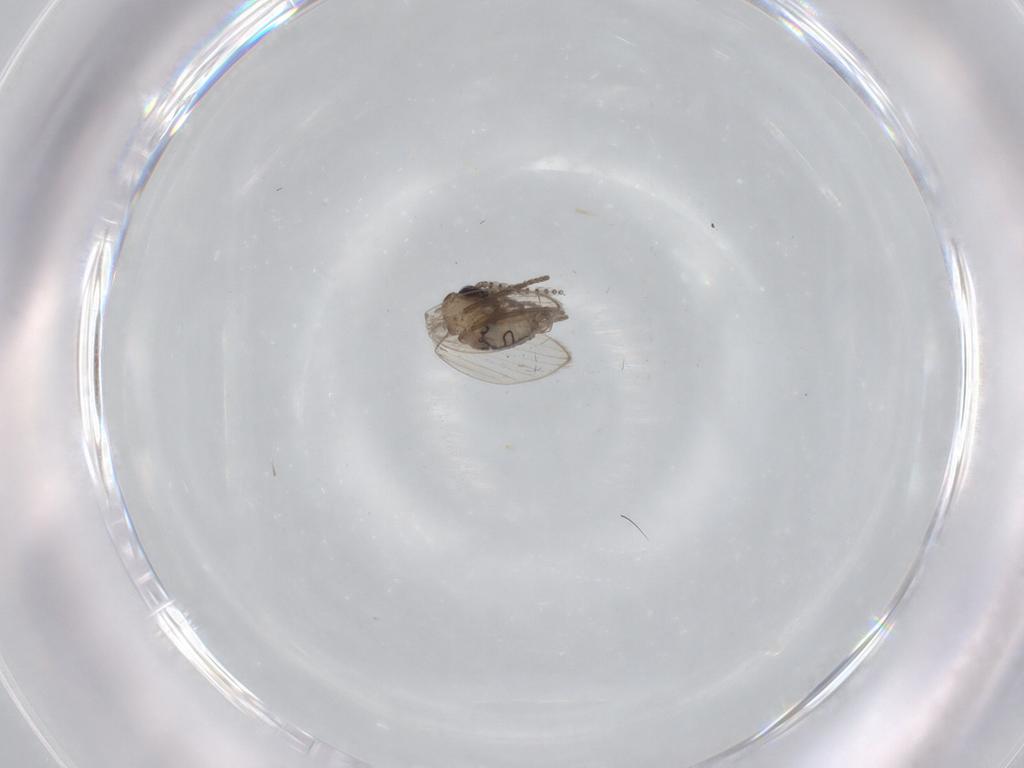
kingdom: Animalia
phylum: Arthropoda
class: Insecta
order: Diptera
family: Psychodidae
